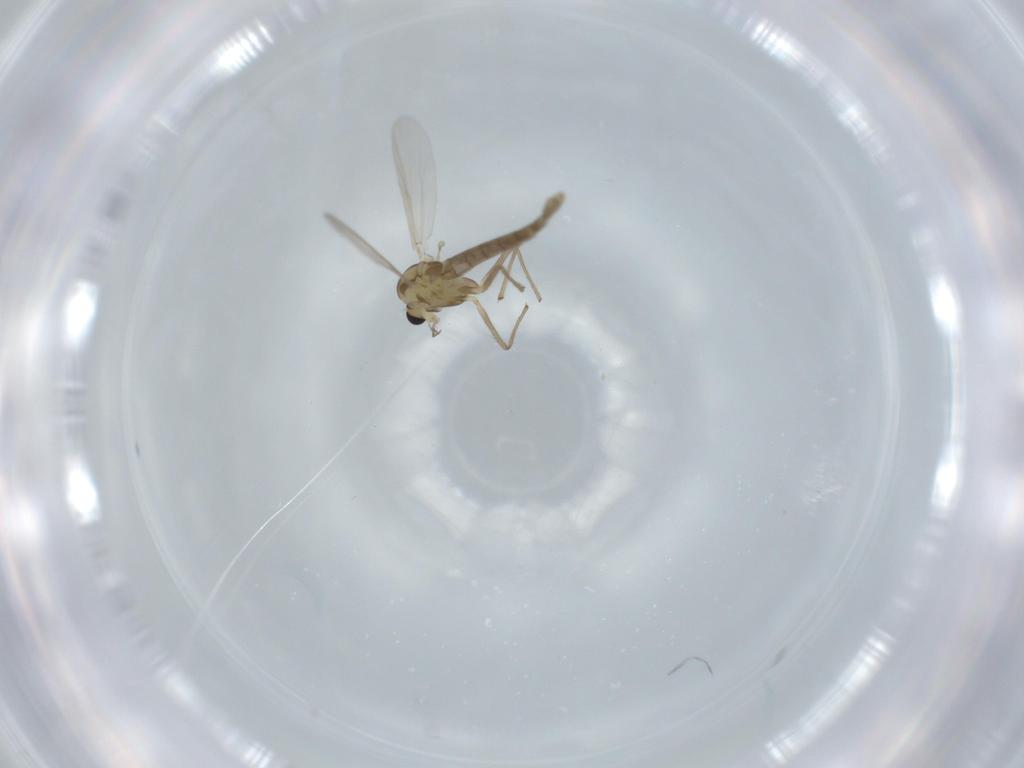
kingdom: Animalia
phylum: Arthropoda
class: Insecta
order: Diptera
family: Chironomidae
